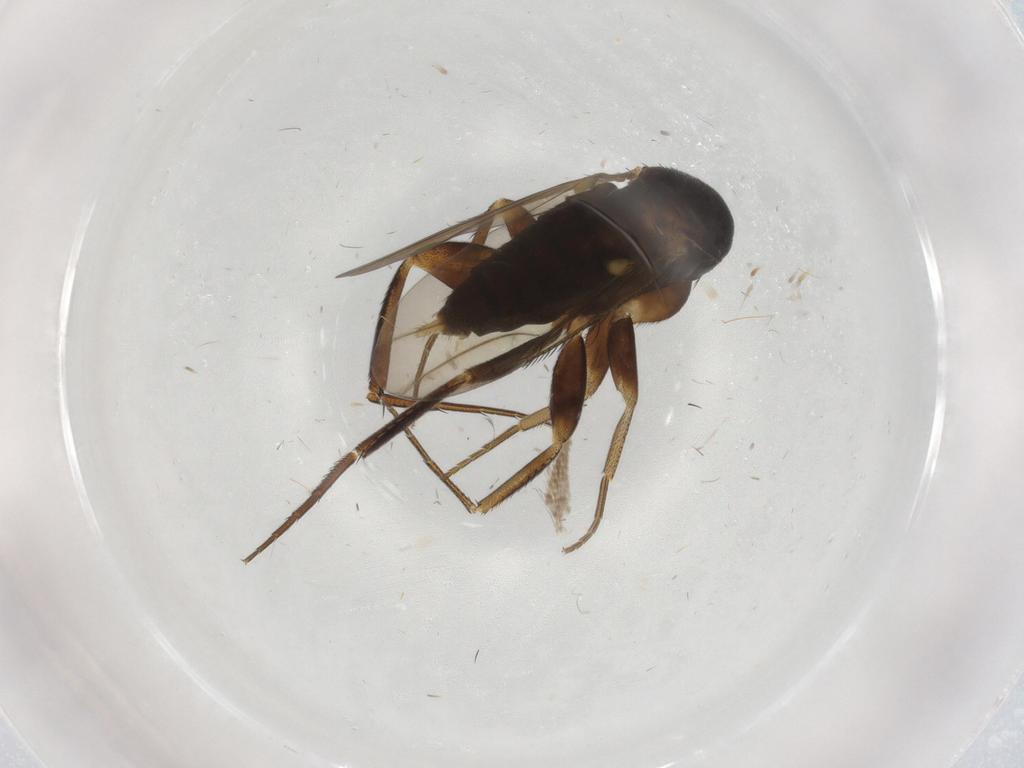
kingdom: Animalia
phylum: Arthropoda
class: Insecta
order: Diptera
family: Phoridae
